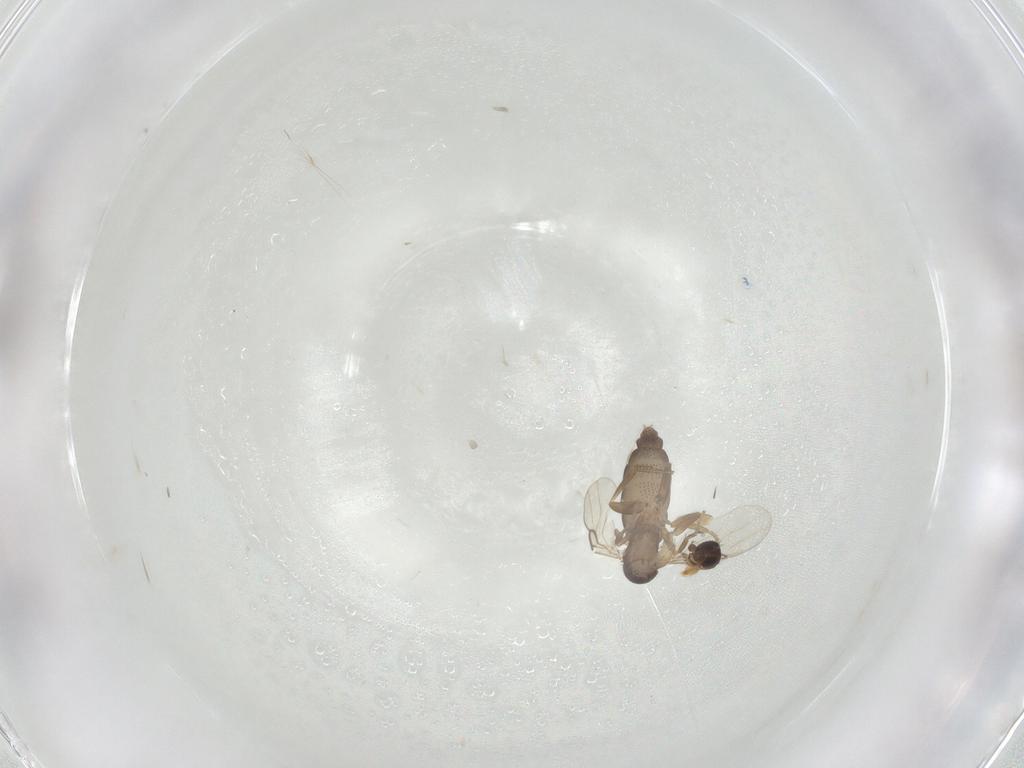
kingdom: Animalia
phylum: Arthropoda
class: Insecta
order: Diptera
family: Phoridae
